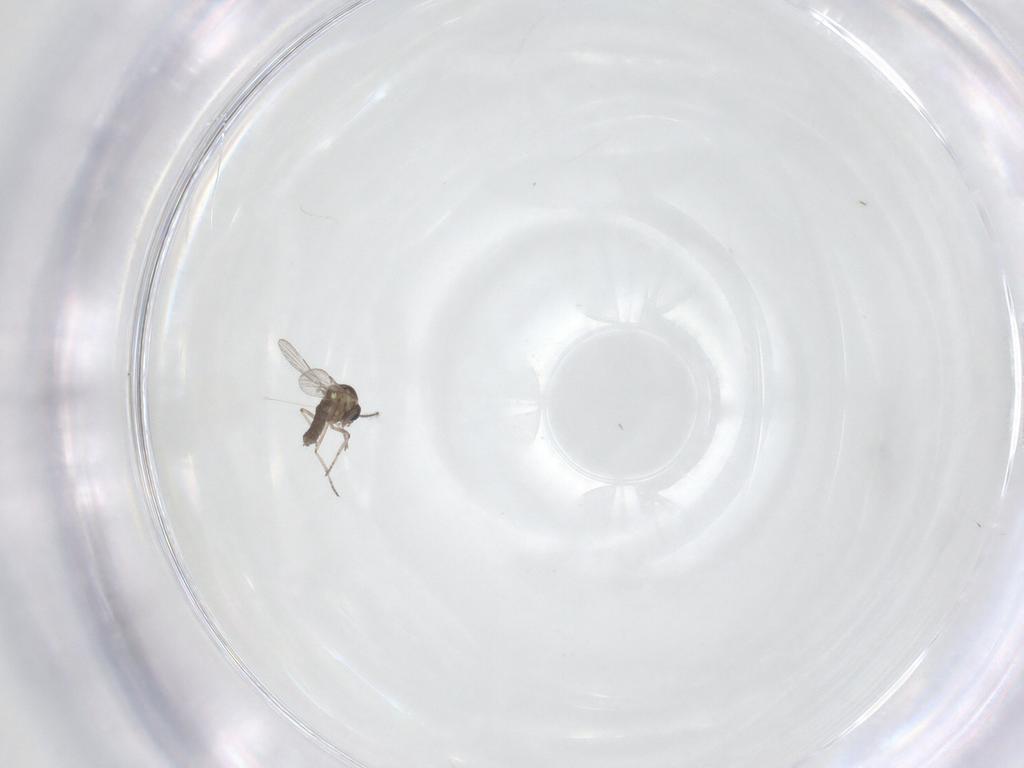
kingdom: Animalia
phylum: Arthropoda
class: Insecta
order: Diptera
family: Ceratopogonidae
